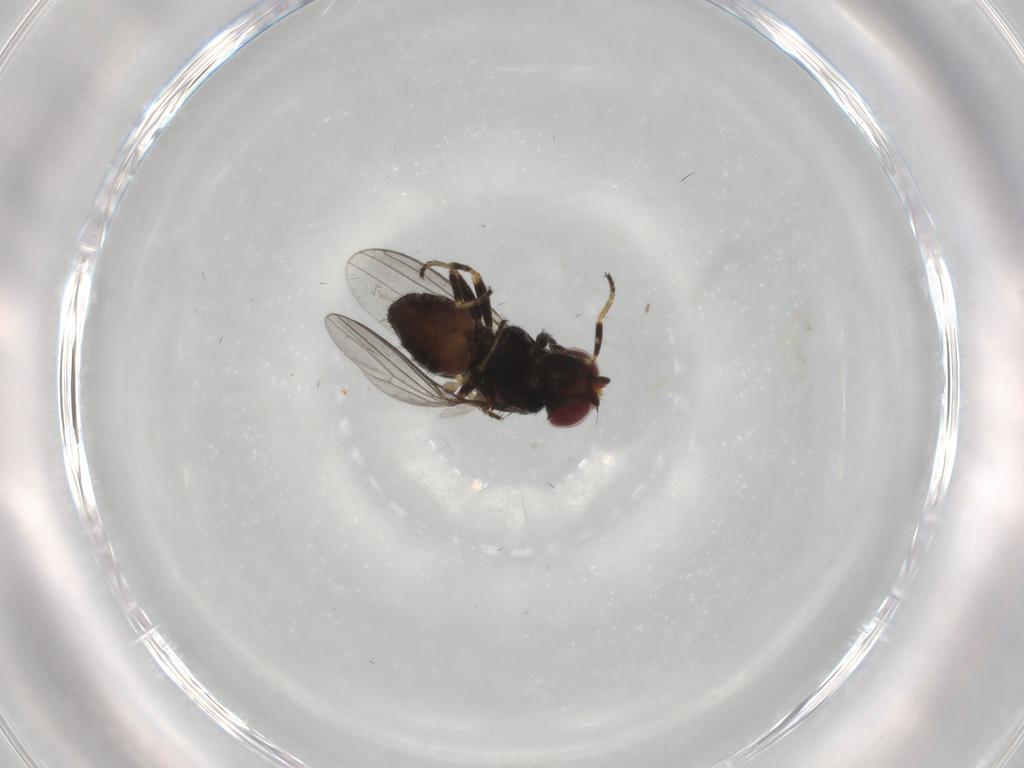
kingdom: Animalia
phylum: Arthropoda
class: Insecta
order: Diptera
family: Chloropidae
